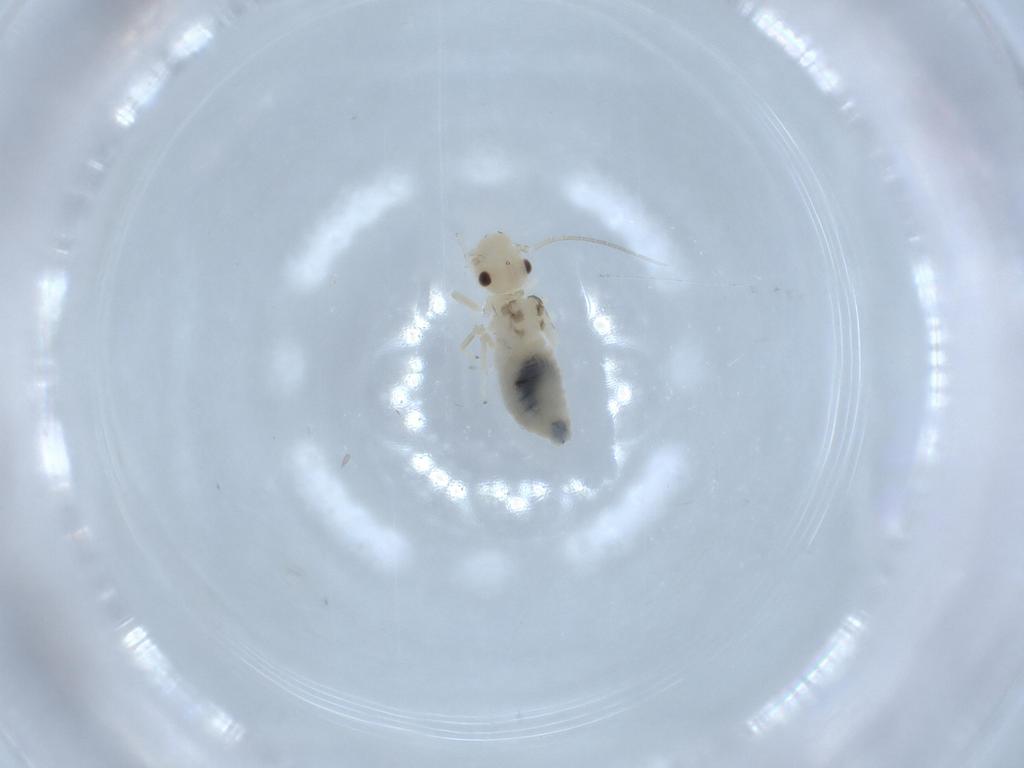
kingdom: Animalia
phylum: Arthropoda
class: Insecta
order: Psocodea
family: Caeciliusidae
